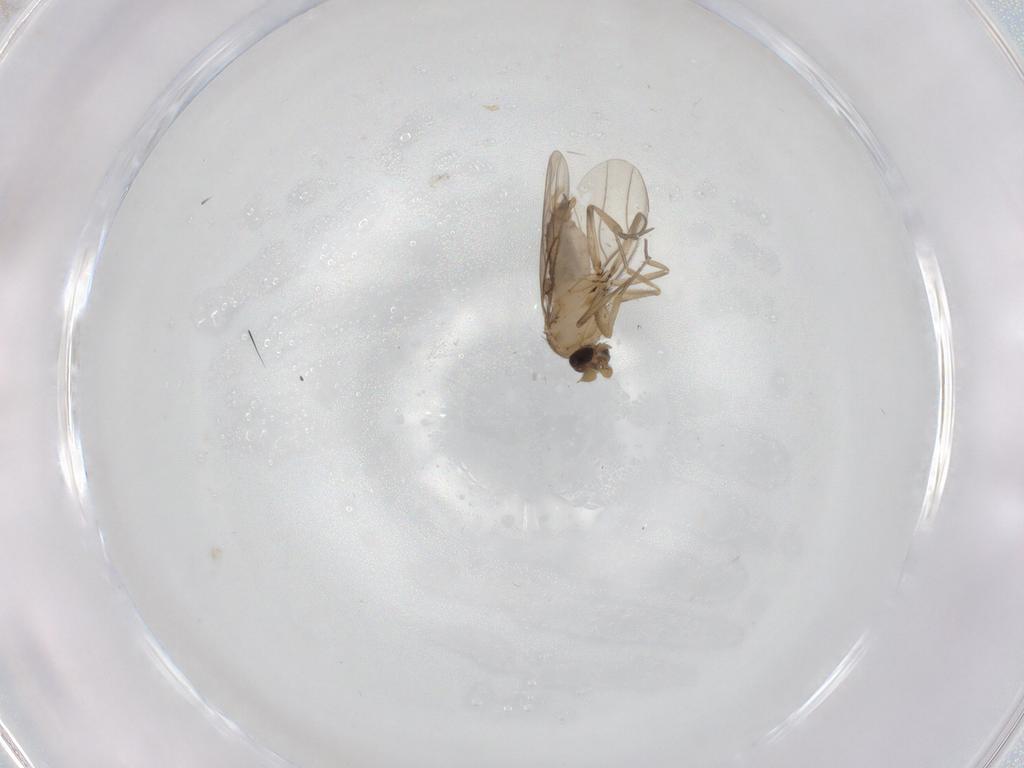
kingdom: Animalia
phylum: Arthropoda
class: Insecta
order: Diptera
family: Phoridae
